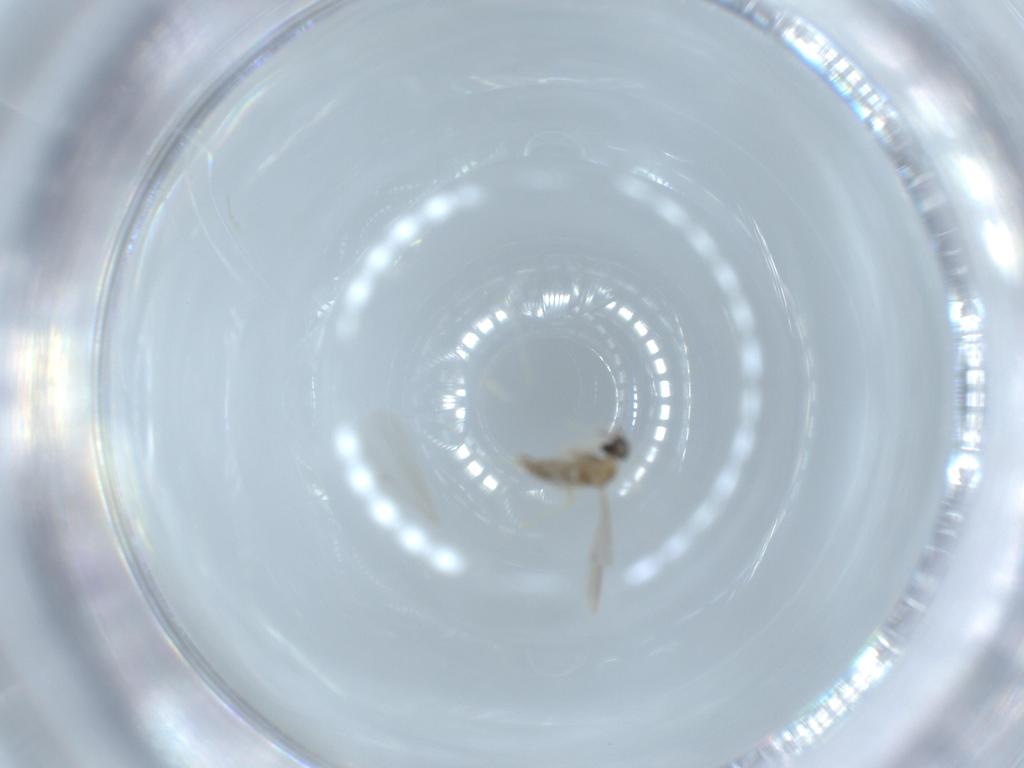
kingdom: Animalia
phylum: Arthropoda
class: Insecta
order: Diptera
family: Cecidomyiidae
